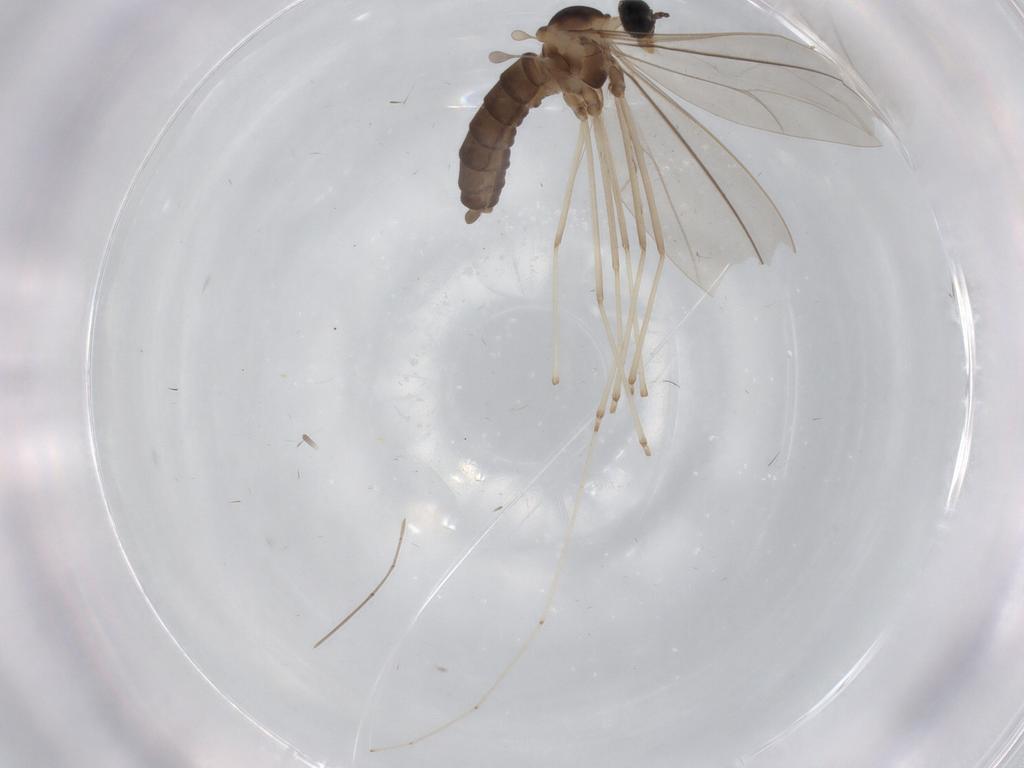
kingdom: Animalia
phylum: Arthropoda
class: Insecta
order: Diptera
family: Cecidomyiidae
